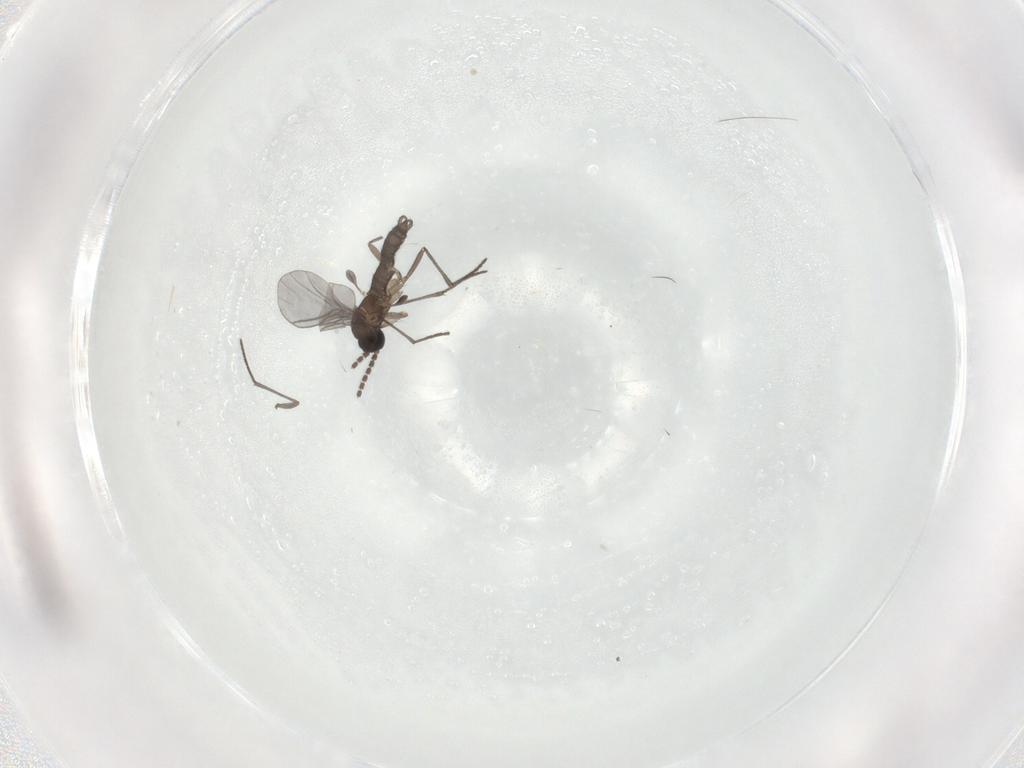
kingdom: Animalia
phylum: Arthropoda
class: Insecta
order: Diptera
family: Sciaridae
